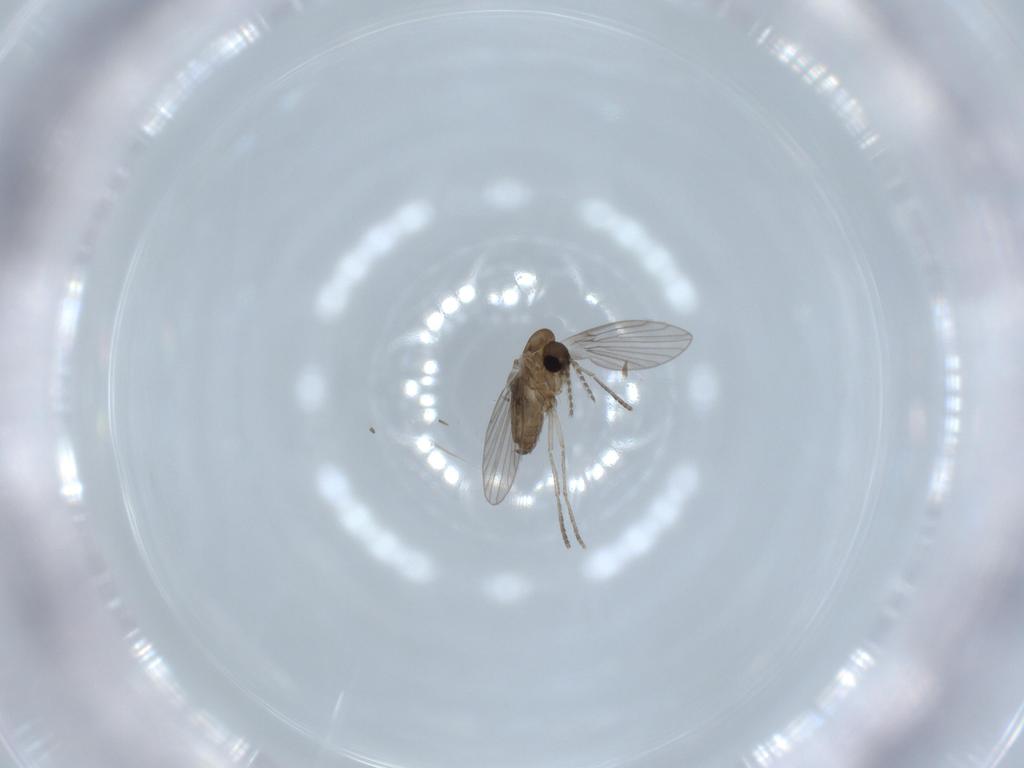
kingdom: Animalia
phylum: Arthropoda
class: Insecta
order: Diptera
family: Psychodidae
